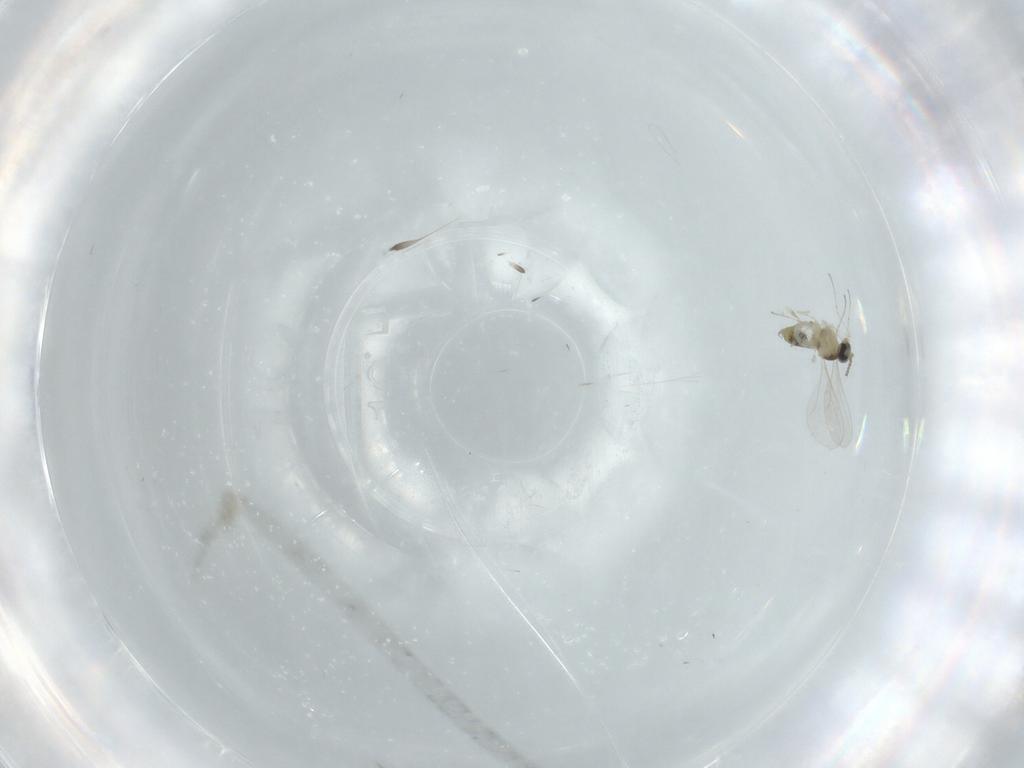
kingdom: Animalia
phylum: Arthropoda
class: Insecta
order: Diptera
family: Cecidomyiidae
